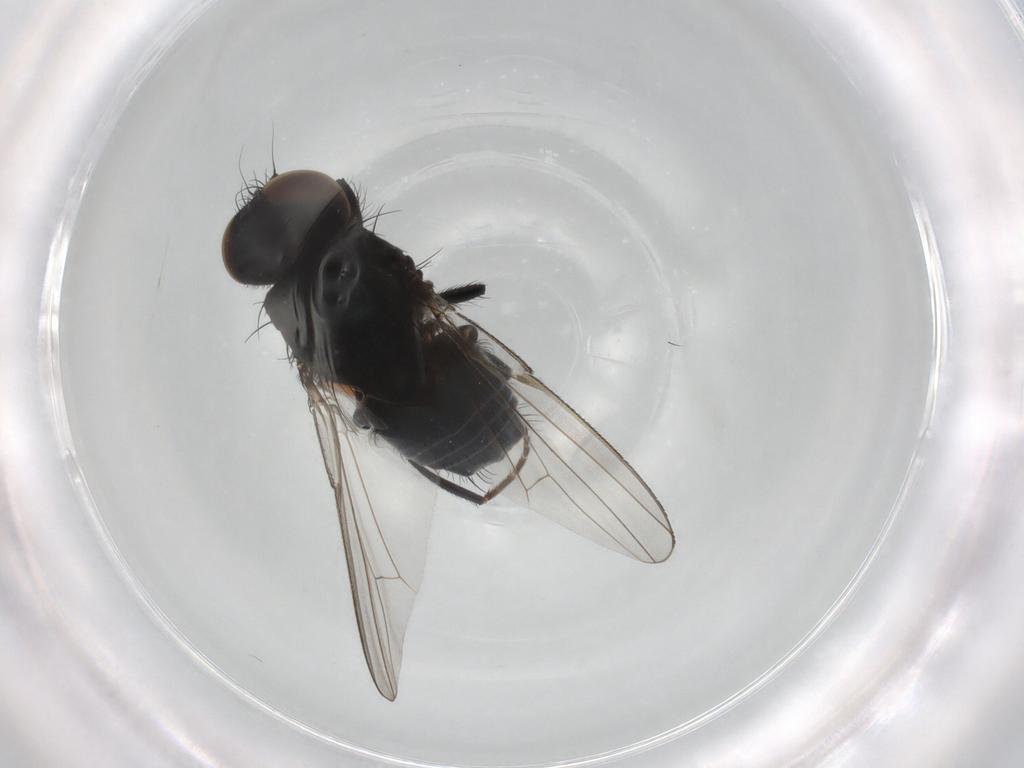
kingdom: Animalia
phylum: Arthropoda
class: Insecta
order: Diptera
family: Milichiidae
